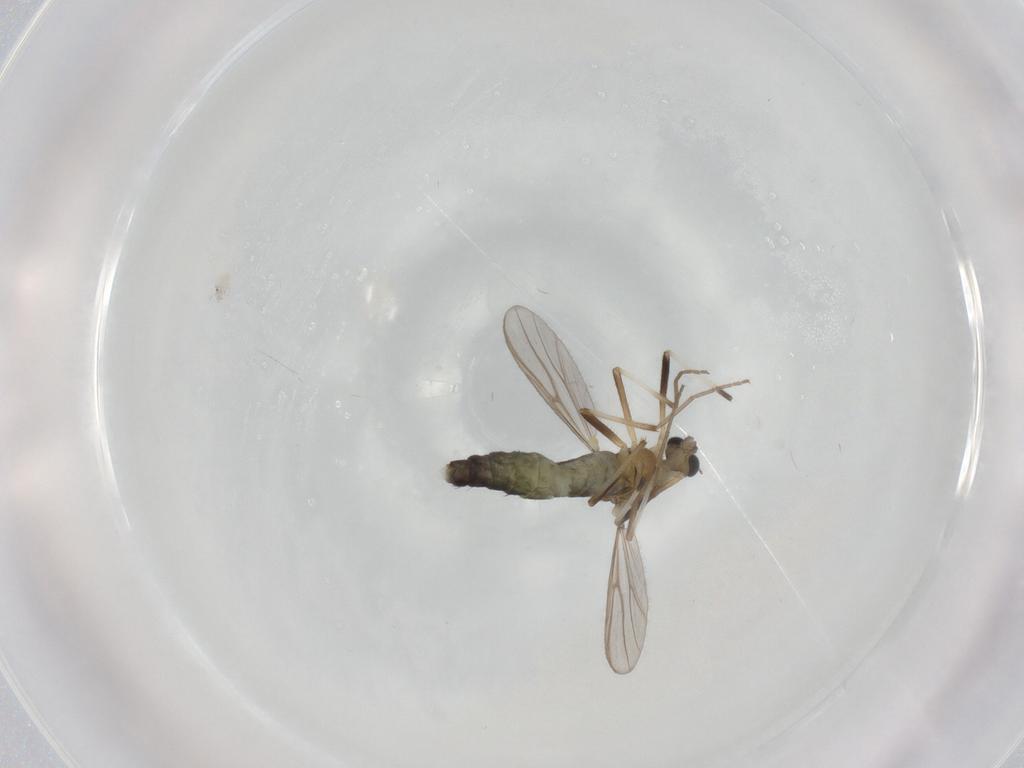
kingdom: Animalia
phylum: Arthropoda
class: Insecta
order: Diptera
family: Chironomidae
